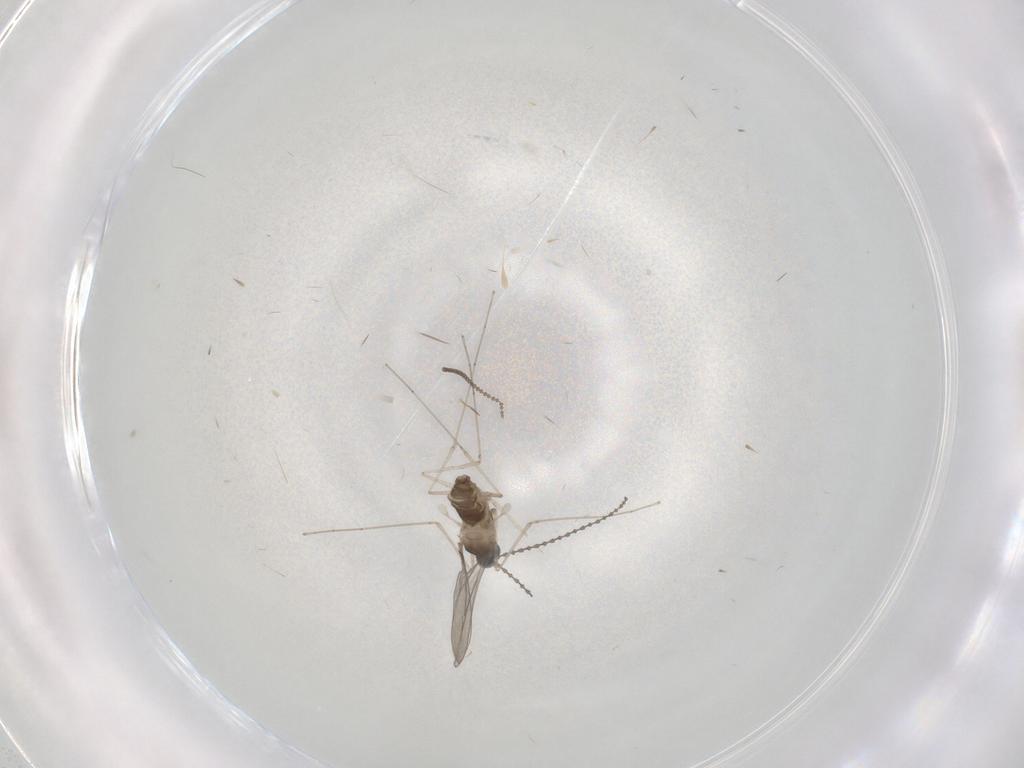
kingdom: Animalia
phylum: Arthropoda
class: Insecta
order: Diptera
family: Cecidomyiidae
